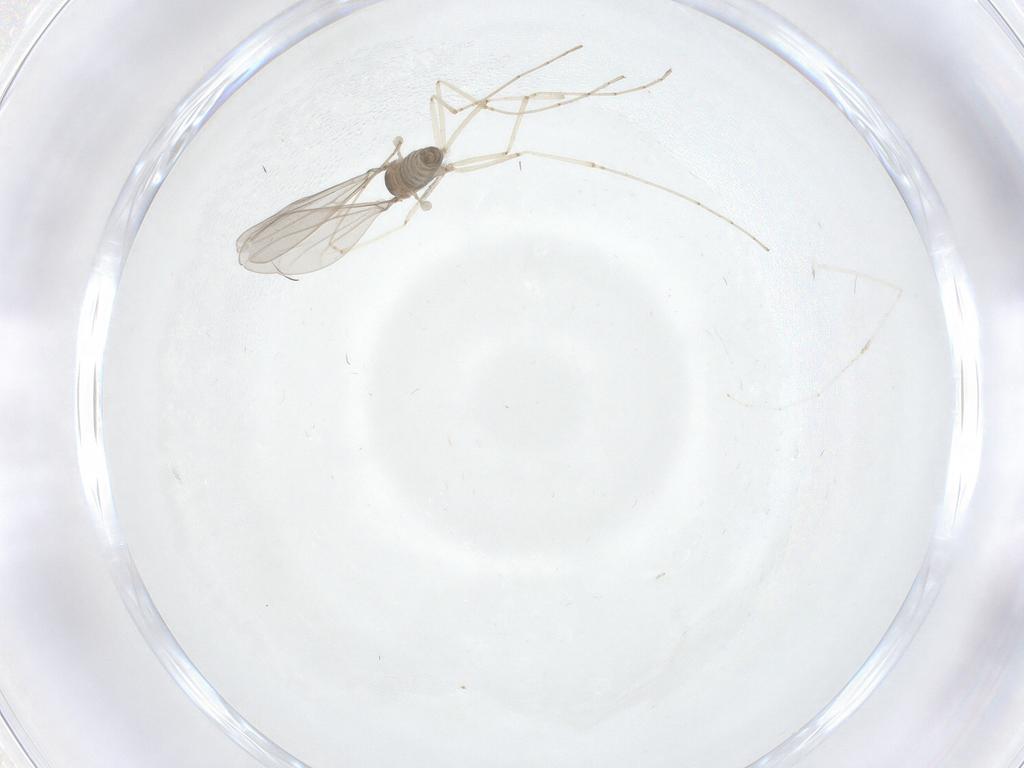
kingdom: Animalia
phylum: Arthropoda
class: Insecta
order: Diptera
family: Cecidomyiidae
